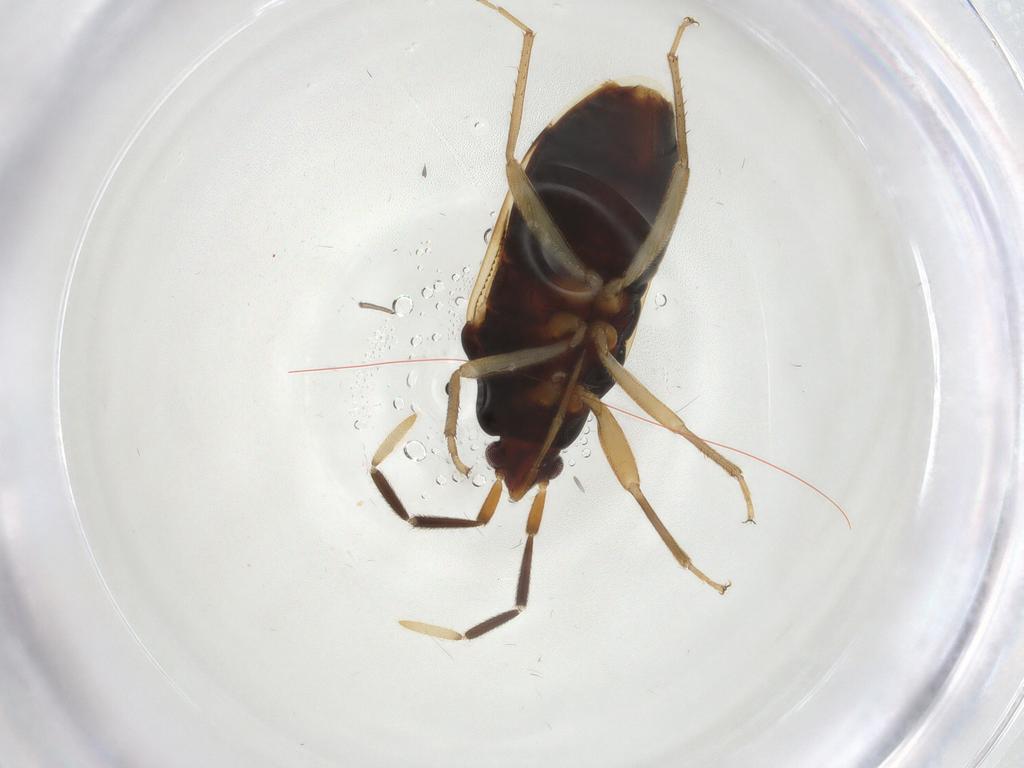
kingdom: Animalia
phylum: Arthropoda
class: Insecta
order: Hemiptera
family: Rhyparochromidae
